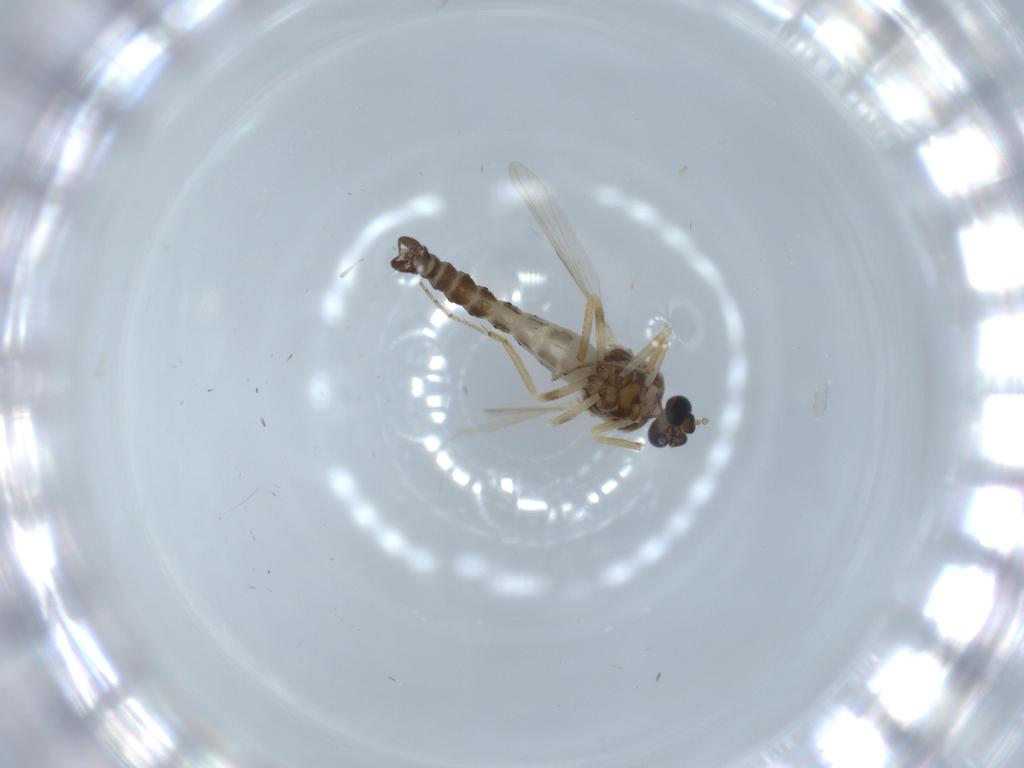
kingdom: Animalia
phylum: Arthropoda
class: Insecta
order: Diptera
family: Ceratopogonidae
